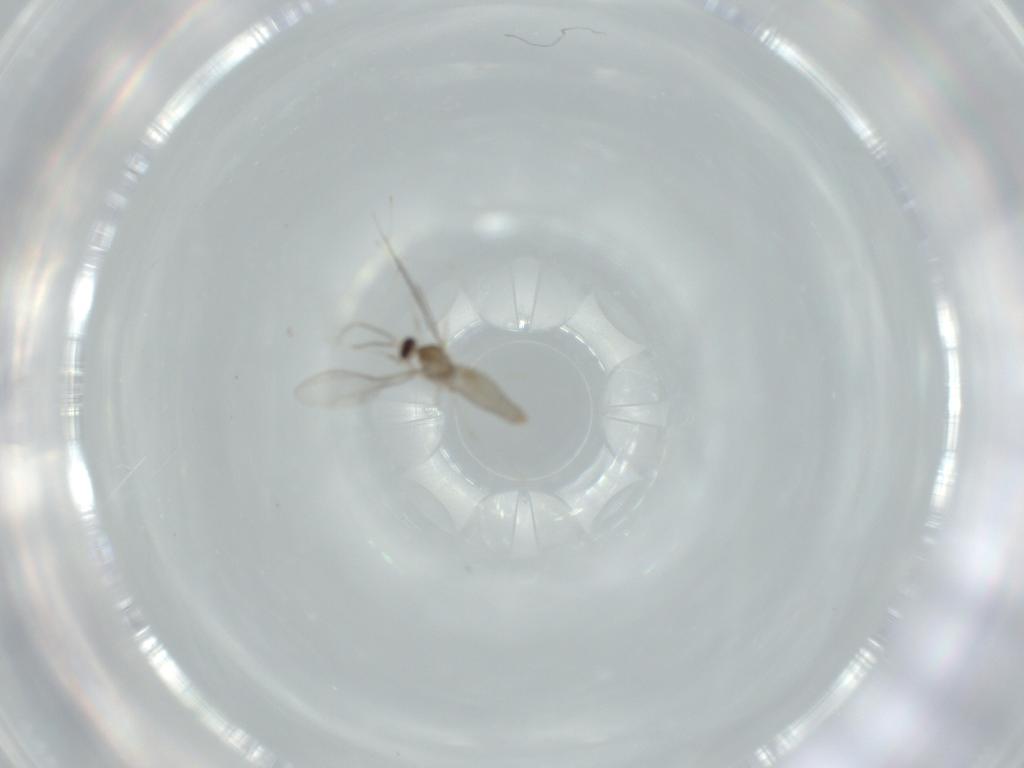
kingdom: Animalia
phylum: Arthropoda
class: Insecta
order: Diptera
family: Cecidomyiidae
